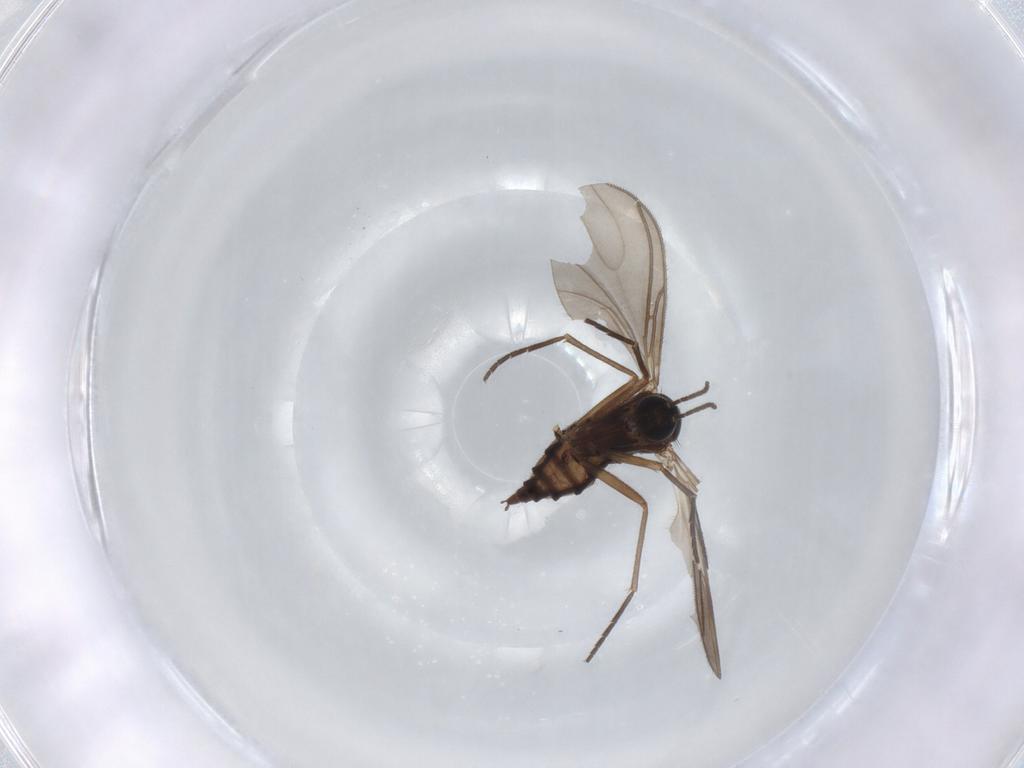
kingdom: Animalia
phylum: Arthropoda
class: Insecta
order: Diptera
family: Sciaridae
